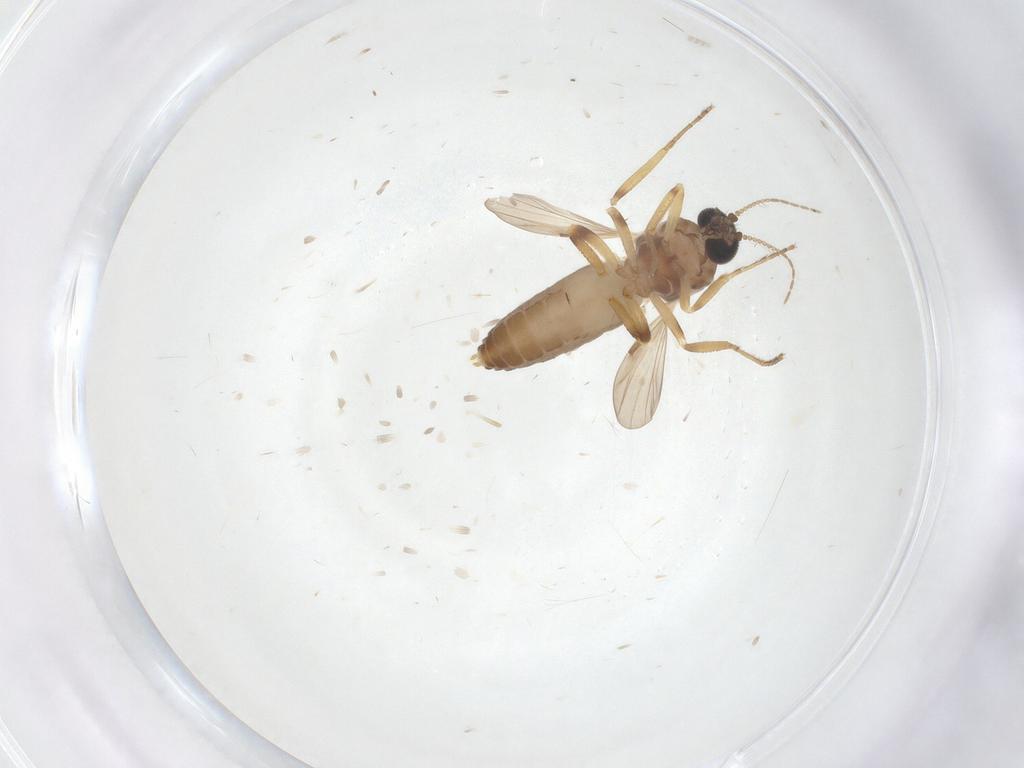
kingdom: Animalia
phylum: Arthropoda
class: Insecta
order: Diptera
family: Ceratopogonidae
